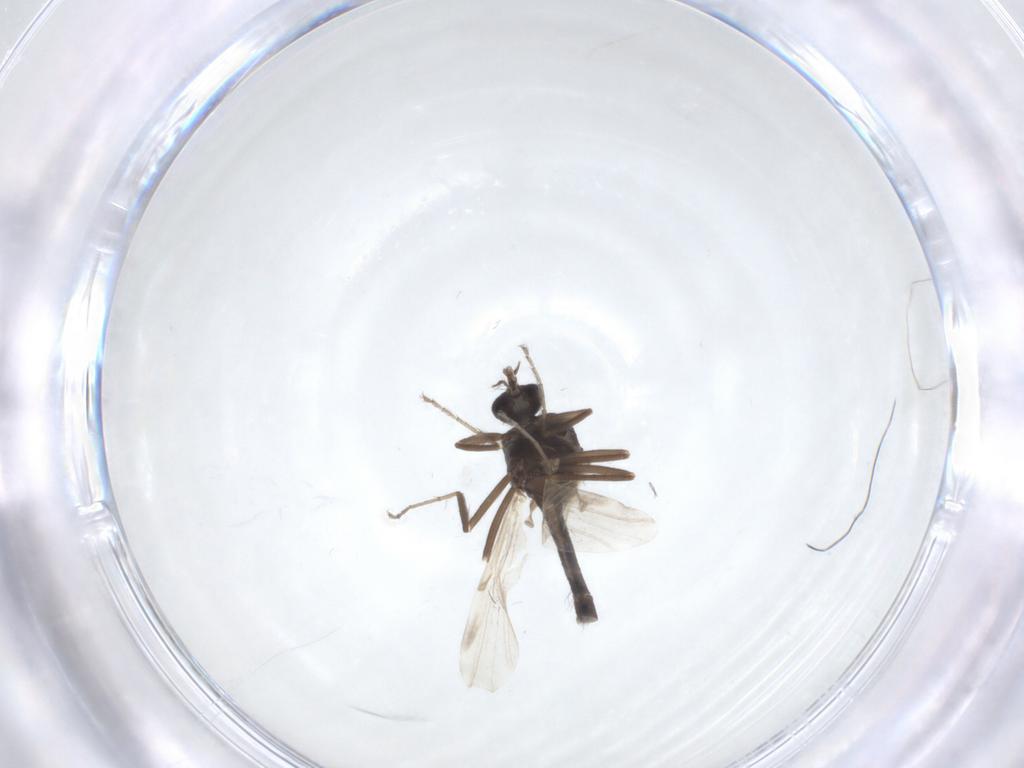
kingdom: Animalia
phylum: Arthropoda
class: Insecta
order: Diptera
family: Ceratopogonidae
